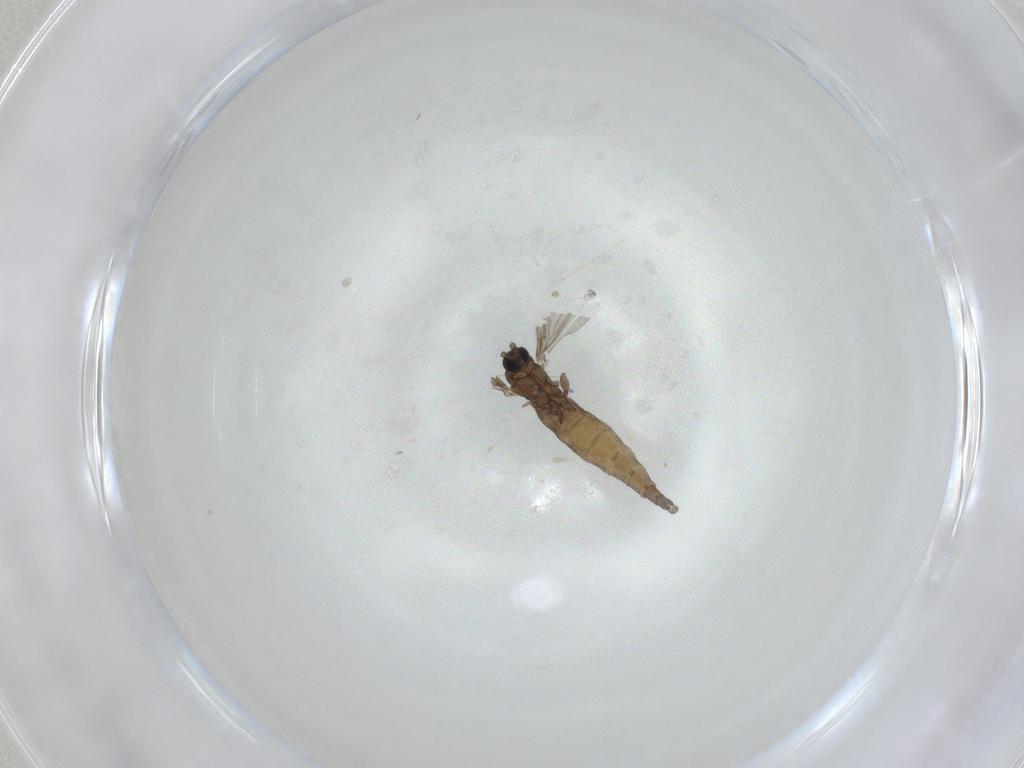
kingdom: Animalia
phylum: Arthropoda
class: Insecta
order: Diptera
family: Sciaridae
